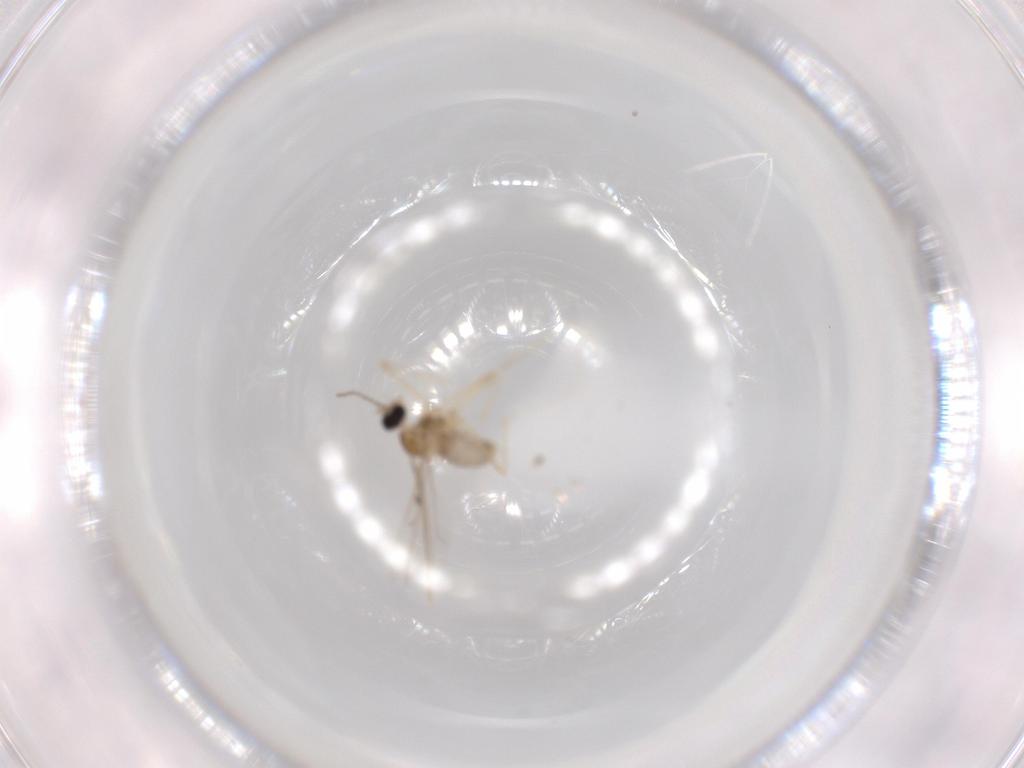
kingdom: Animalia
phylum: Arthropoda
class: Insecta
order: Diptera
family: Cecidomyiidae
